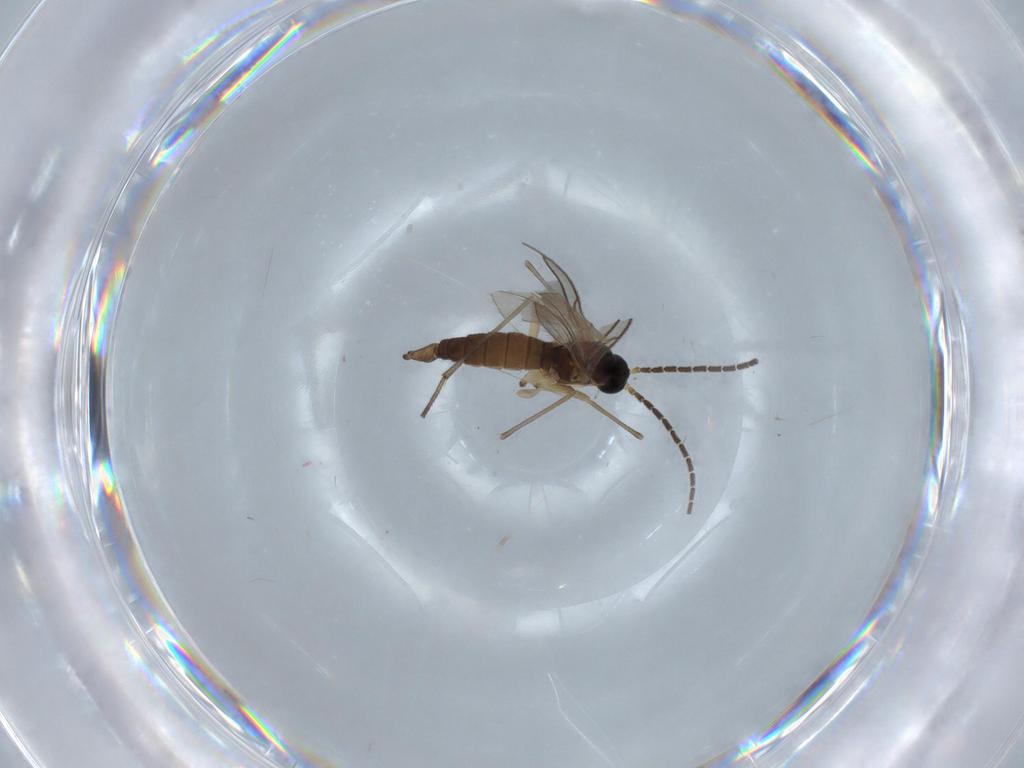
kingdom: Animalia
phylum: Arthropoda
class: Insecta
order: Diptera
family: Sciaridae
